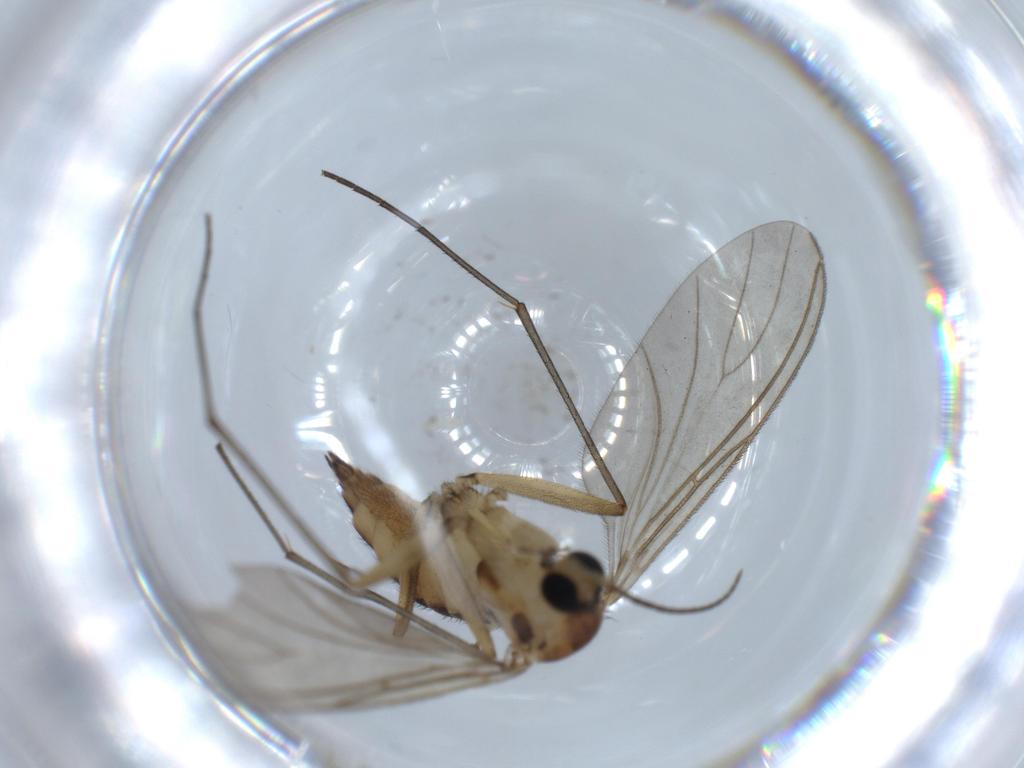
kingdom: Animalia
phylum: Arthropoda
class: Insecta
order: Diptera
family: Sciaridae
